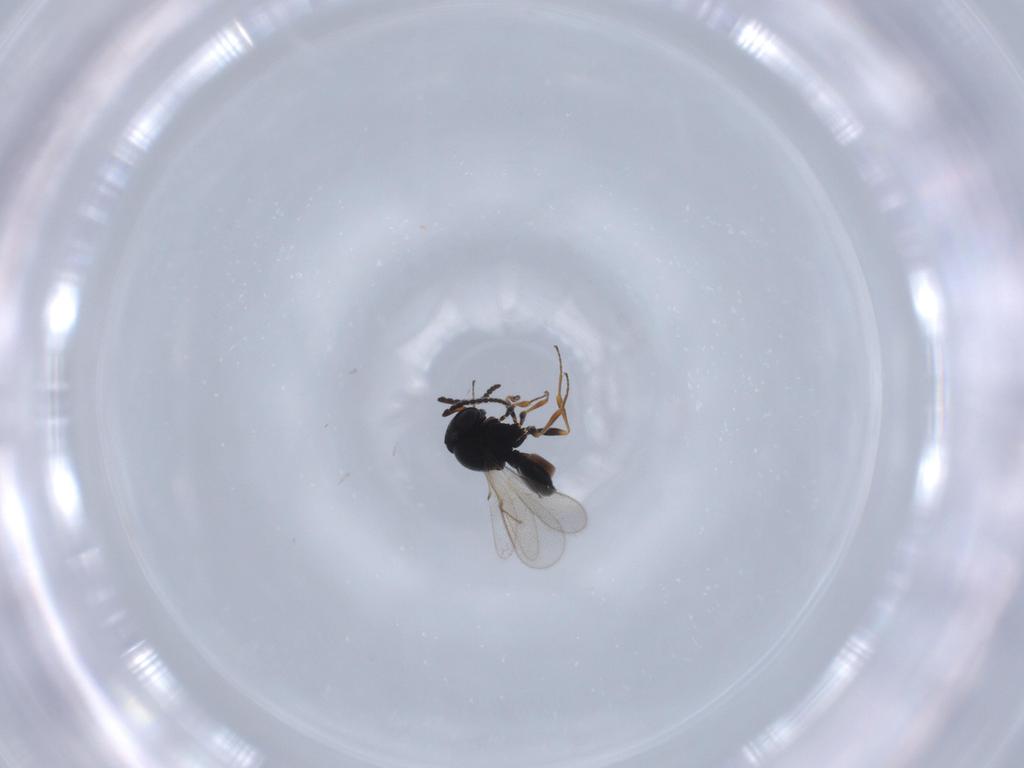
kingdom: Animalia
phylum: Arthropoda
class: Insecta
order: Hymenoptera
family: Scelionidae
